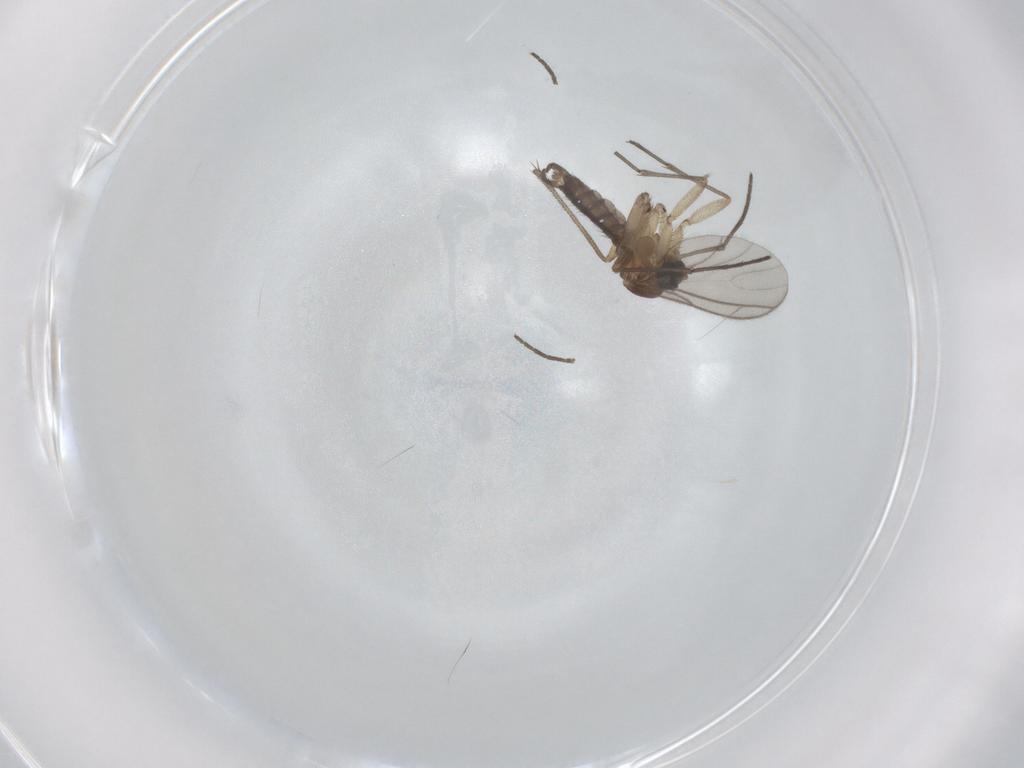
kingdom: Animalia
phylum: Arthropoda
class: Insecta
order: Diptera
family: Chironomidae
